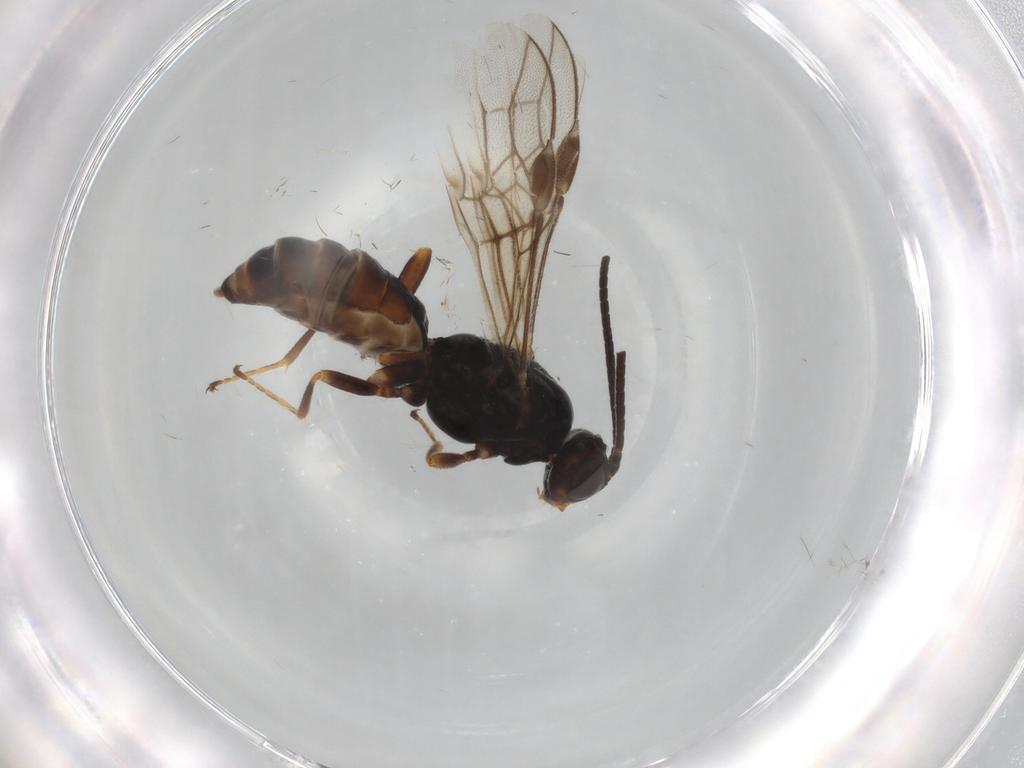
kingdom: Animalia
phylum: Arthropoda
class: Insecta
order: Hymenoptera
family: Braconidae
